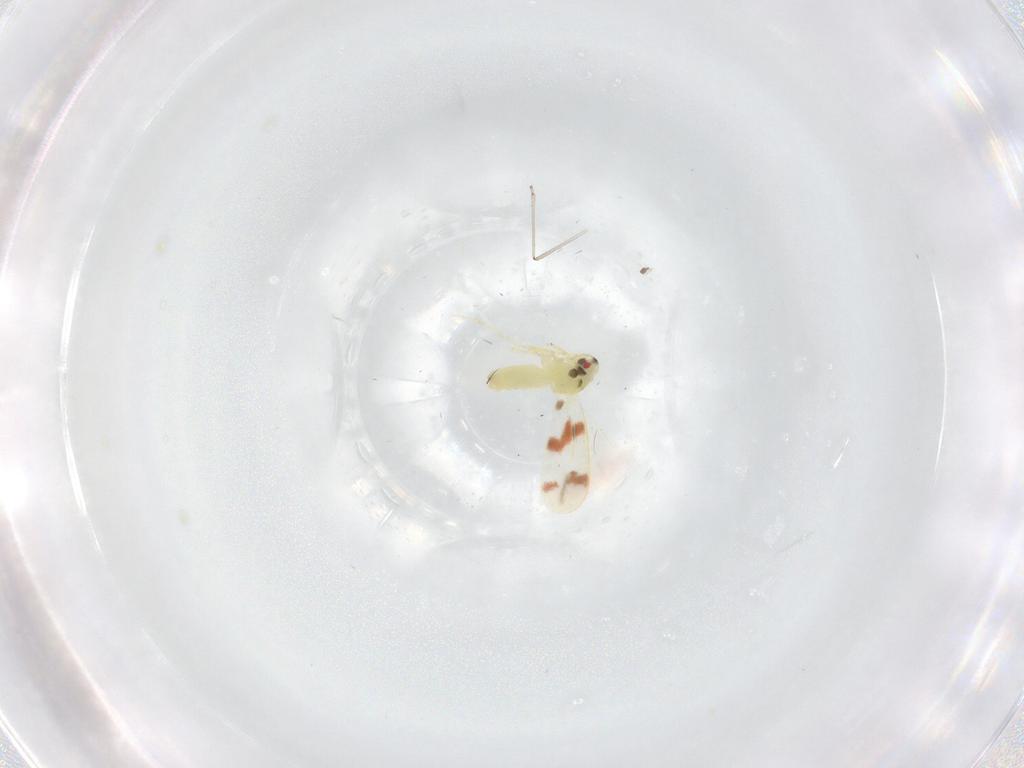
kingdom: Animalia
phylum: Arthropoda
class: Insecta
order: Hemiptera
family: Aleyrodidae
